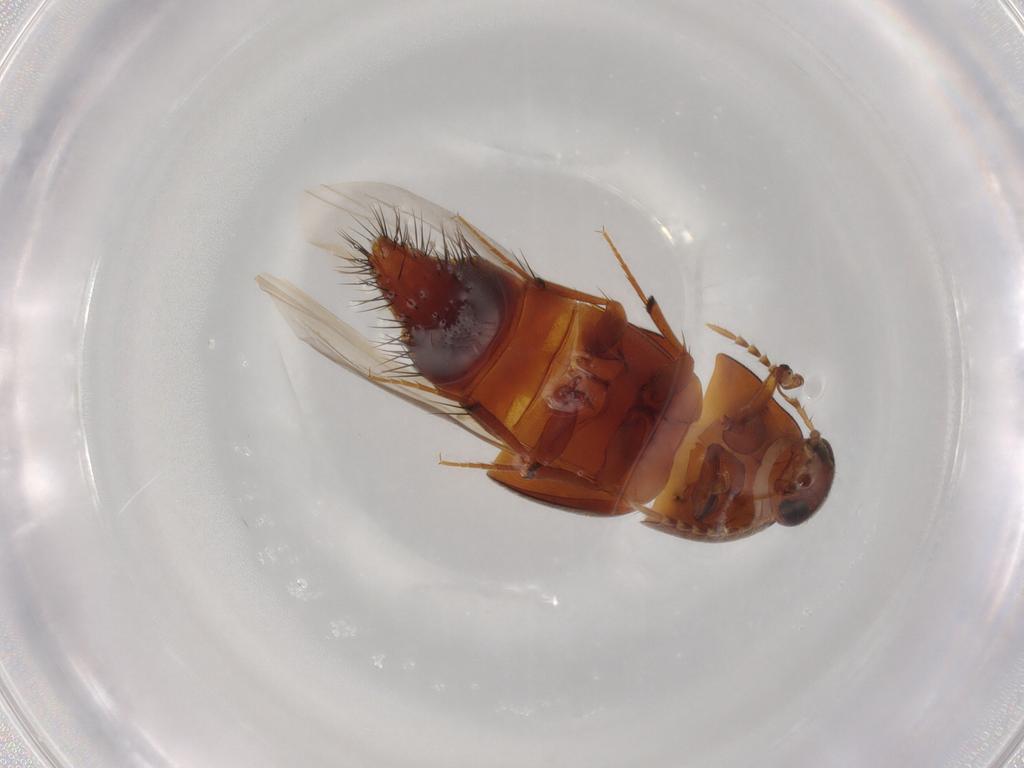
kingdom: Animalia
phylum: Arthropoda
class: Insecta
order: Coleoptera
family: Staphylinidae
